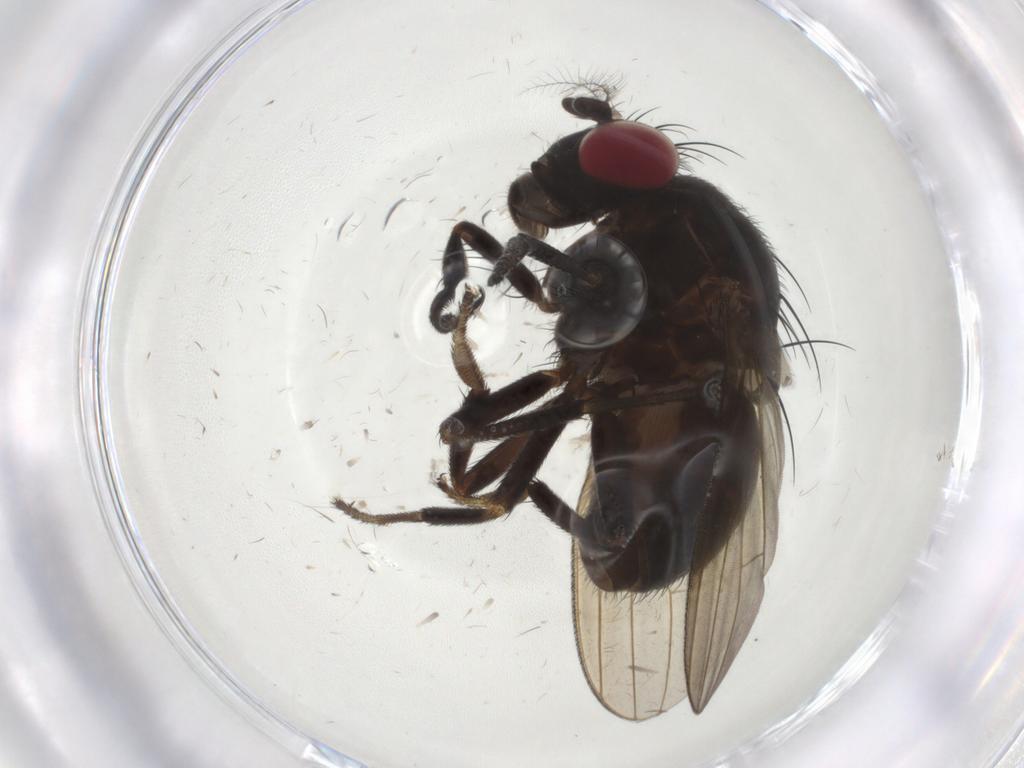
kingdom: Animalia
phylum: Arthropoda
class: Insecta
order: Diptera
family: Lauxaniidae
